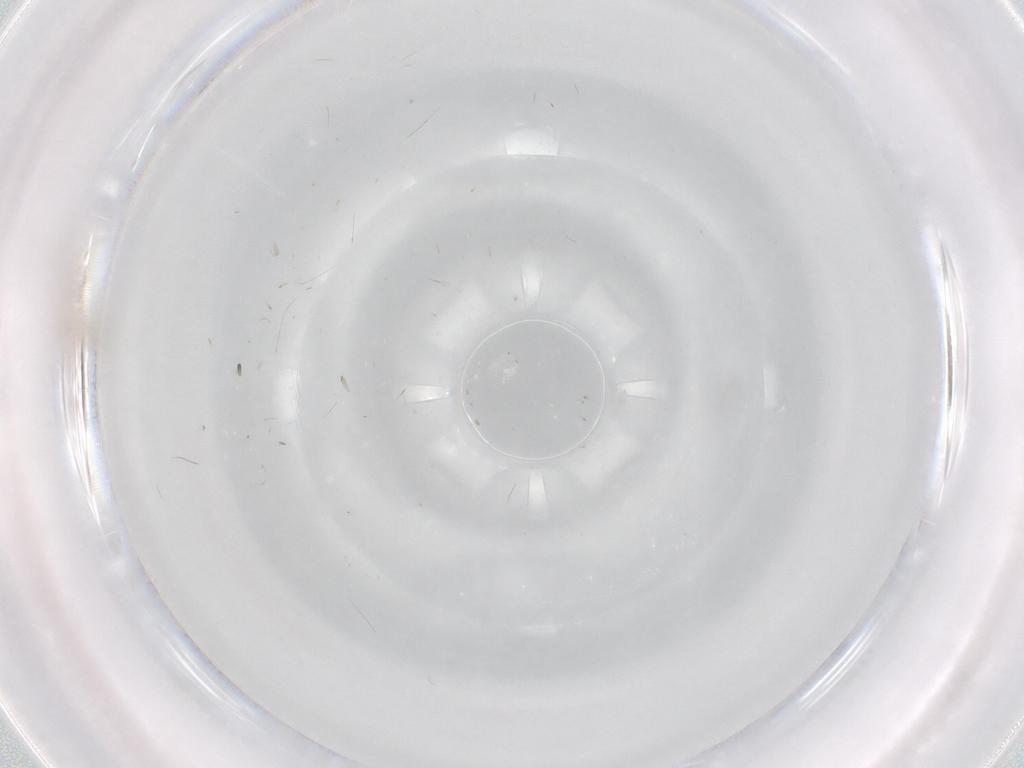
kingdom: Animalia
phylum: Arthropoda
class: Insecta
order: Diptera
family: Chironomidae
